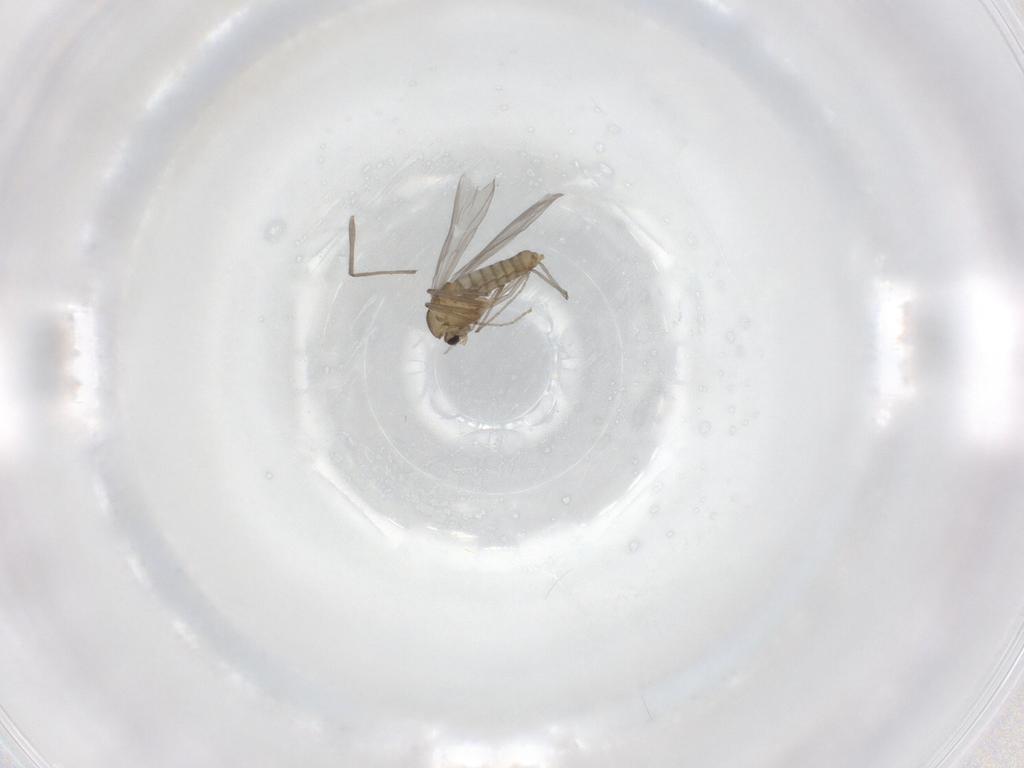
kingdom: Animalia
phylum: Arthropoda
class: Insecta
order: Diptera
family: Chironomidae
